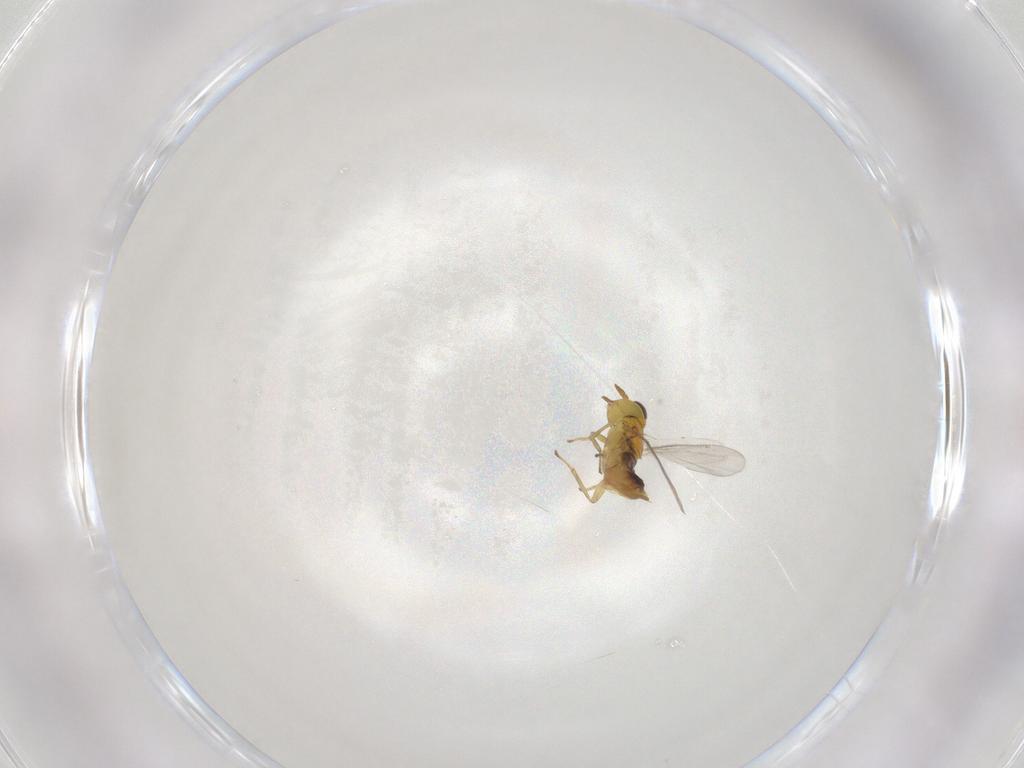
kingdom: Animalia
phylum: Arthropoda
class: Insecta
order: Hymenoptera
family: Aphelinidae
